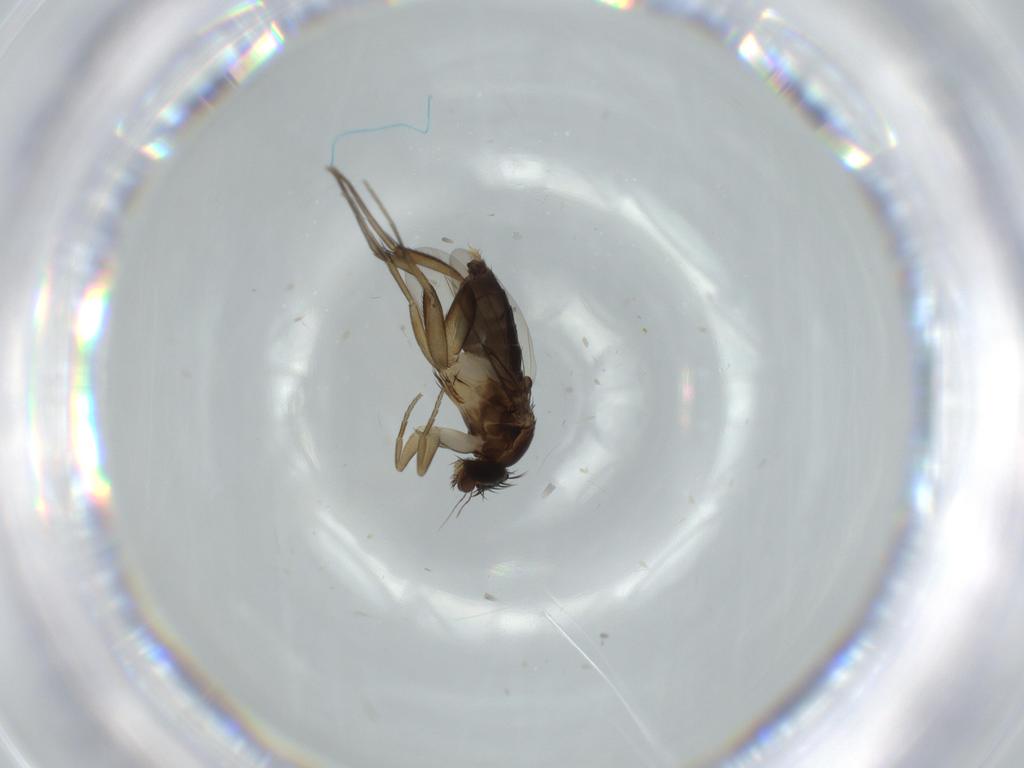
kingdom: Animalia
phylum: Arthropoda
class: Insecta
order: Diptera
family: Phoridae
